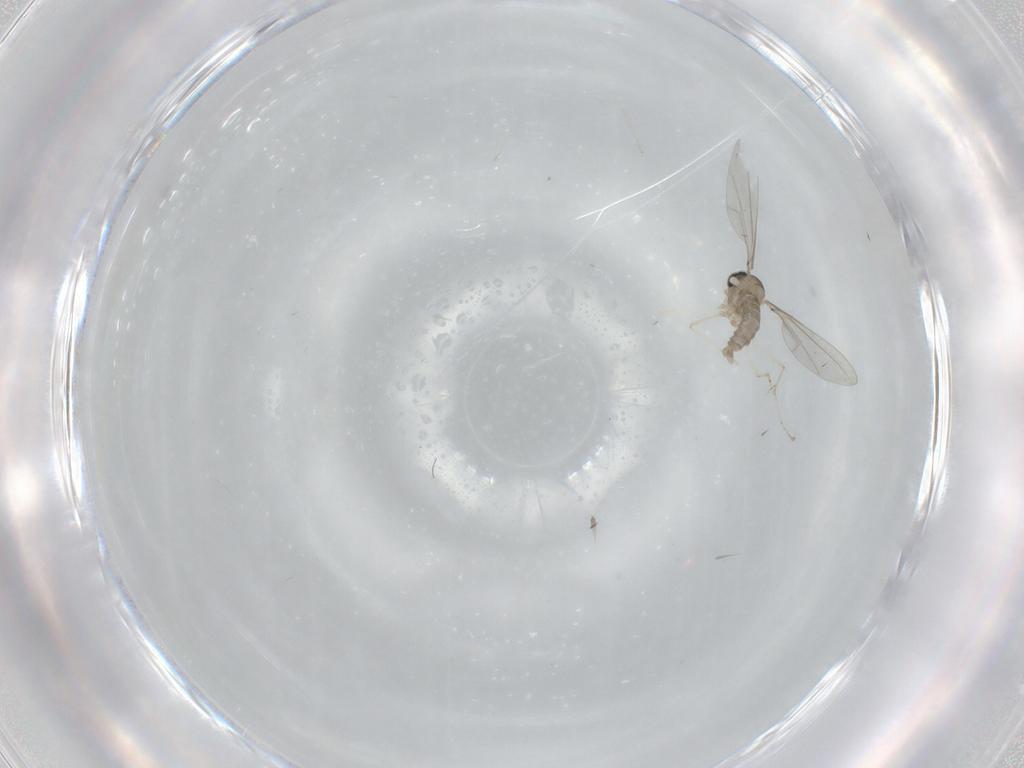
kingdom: Animalia
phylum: Arthropoda
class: Insecta
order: Diptera
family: Cecidomyiidae
